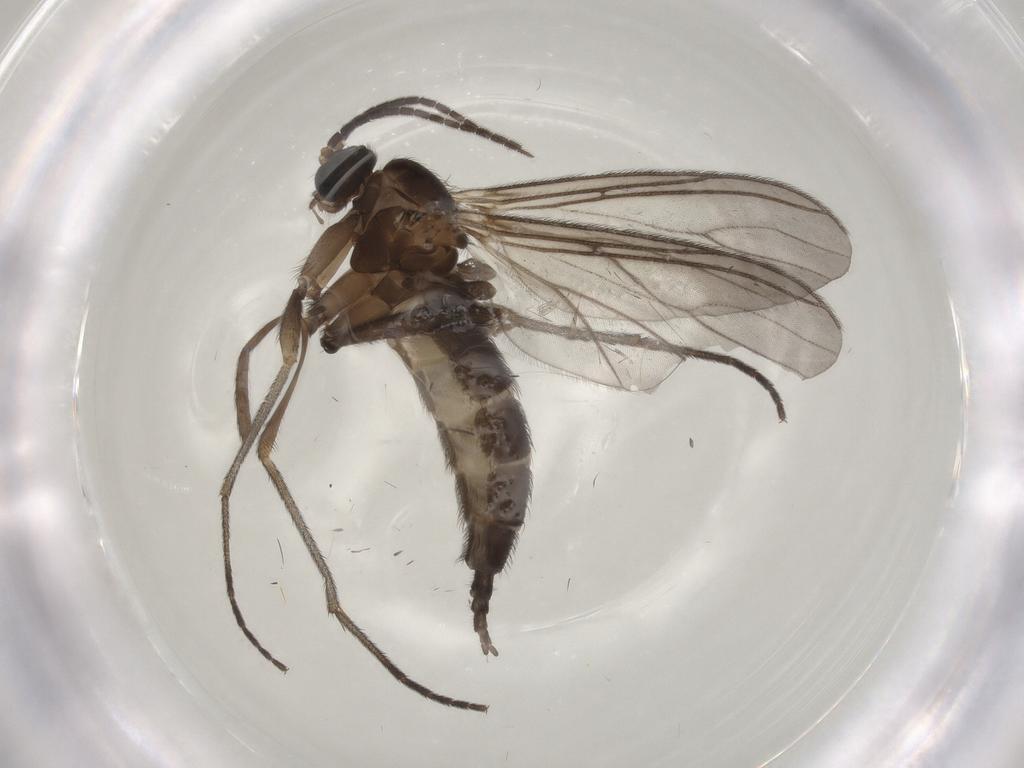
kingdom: Animalia
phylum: Arthropoda
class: Insecta
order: Diptera
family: Sciaridae
